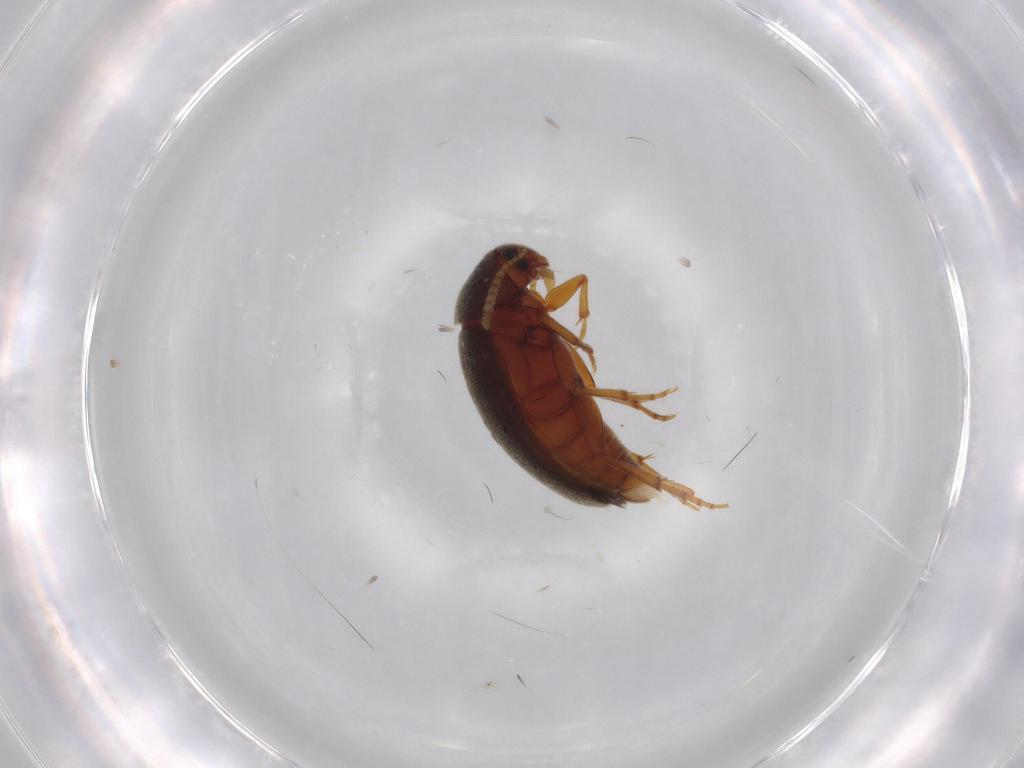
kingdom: Animalia
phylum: Arthropoda
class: Insecta
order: Coleoptera
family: Scraptiidae
